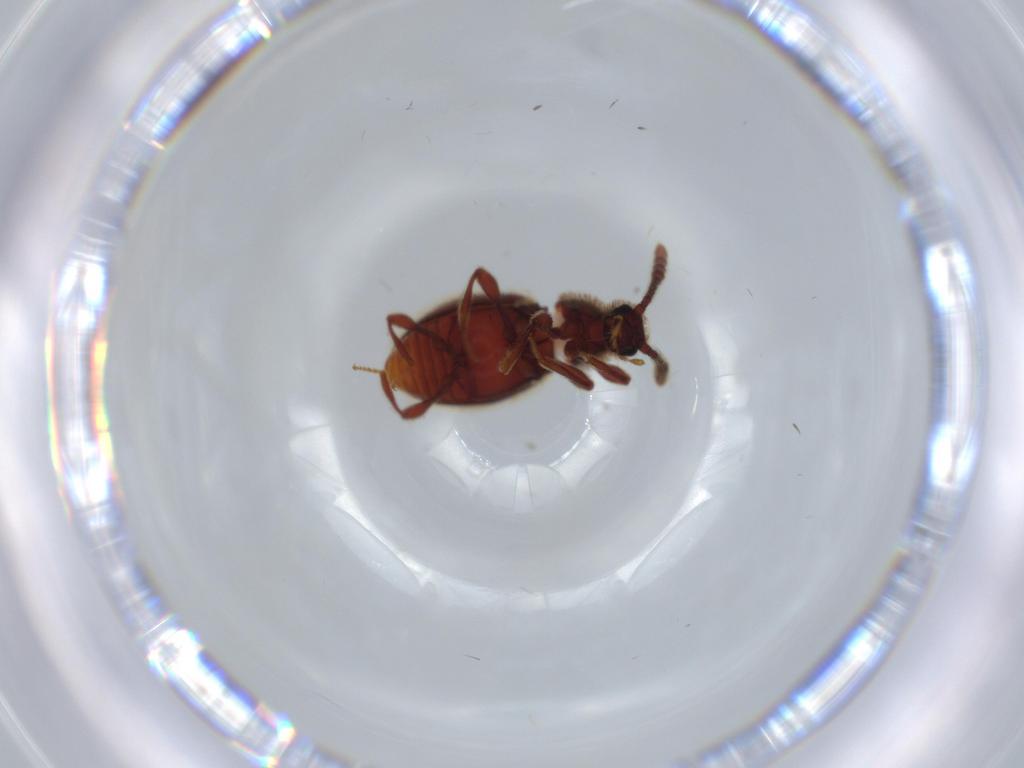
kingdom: Animalia
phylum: Arthropoda
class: Insecta
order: Coleoptera
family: Staphylinidae
